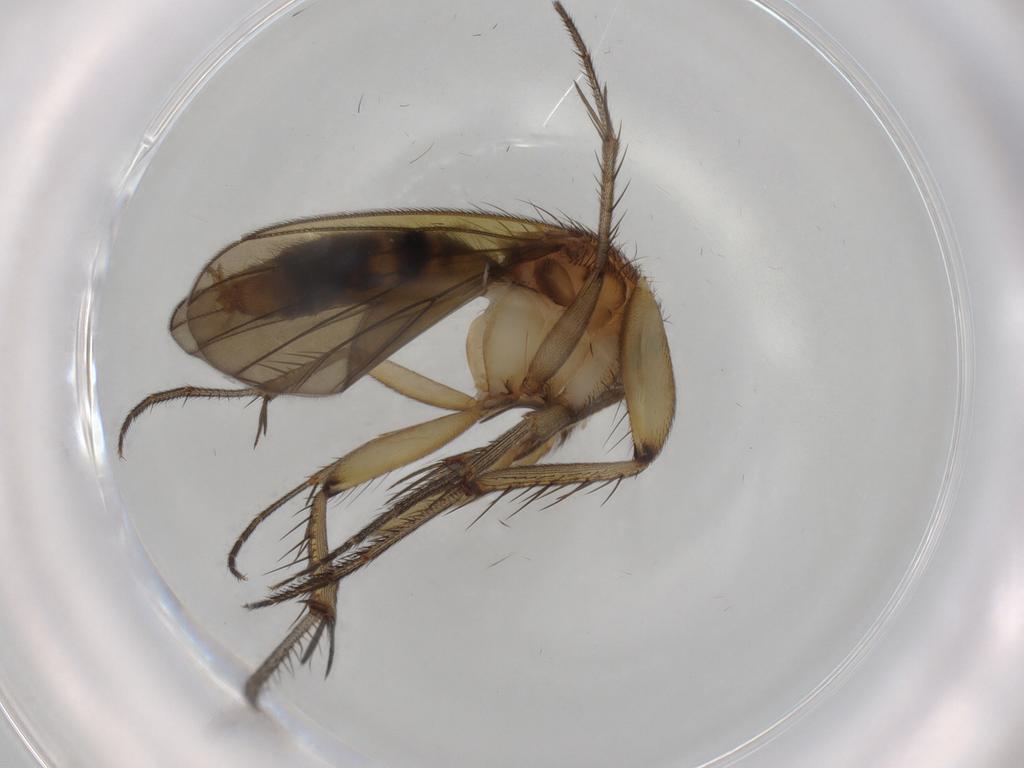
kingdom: Animalia
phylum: Arthropoda
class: Insecta
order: Diptera
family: Mycetophilidae
